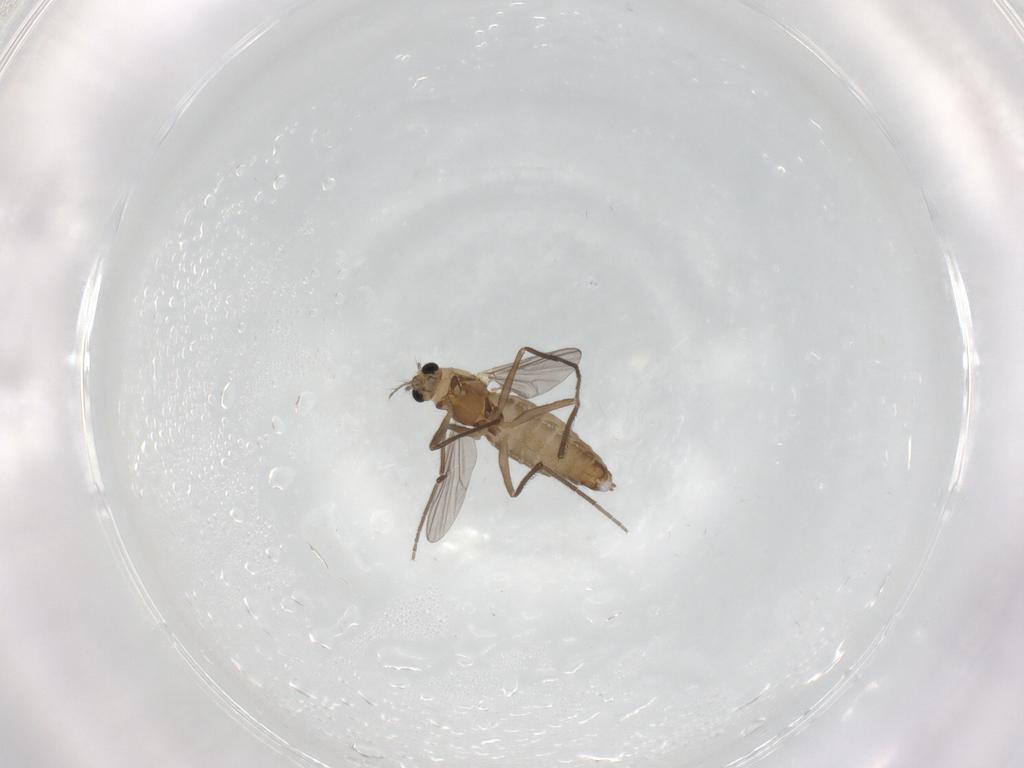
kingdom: Animalia
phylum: Arthropoda
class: Insecta
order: Diptera
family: Chironomidae
